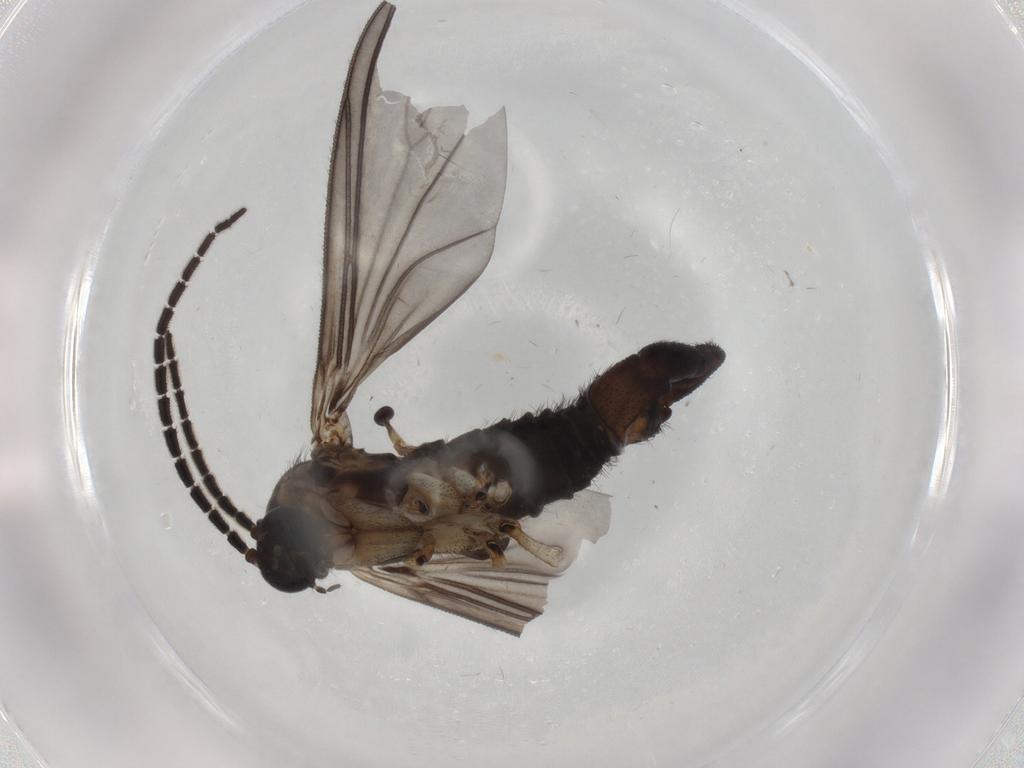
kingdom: Animalia
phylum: Arthropoda
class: Insecta
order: Diptera
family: Sciaridae
